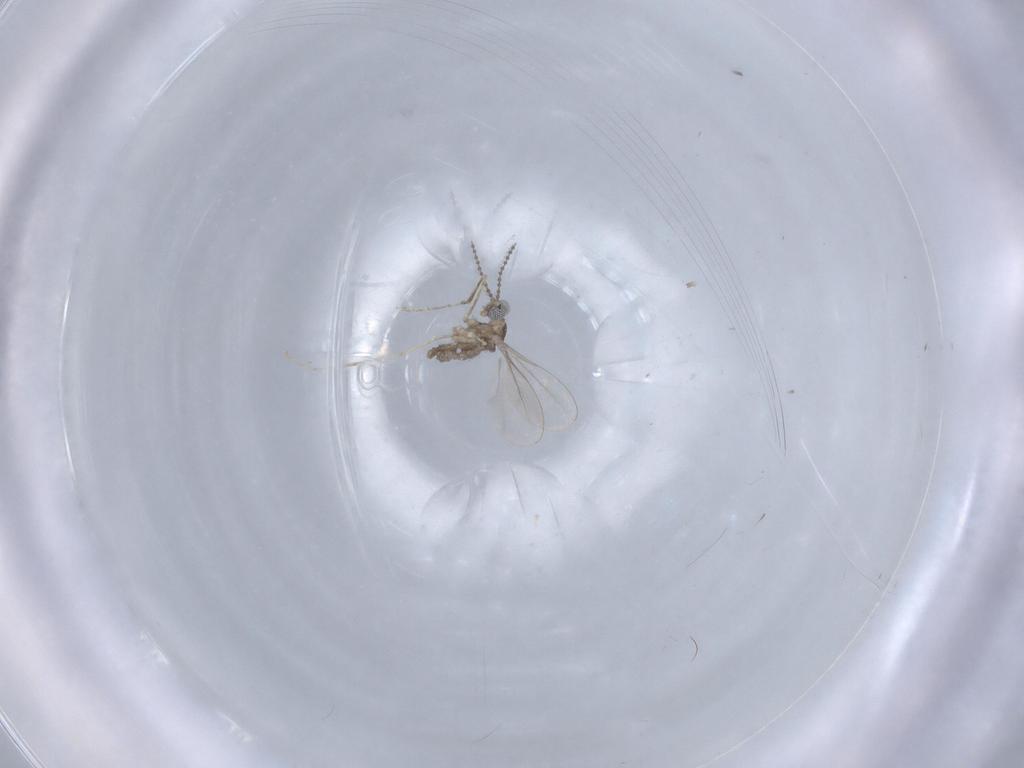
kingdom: Animalia
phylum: Arthropoda
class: Insecta
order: Diptera
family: Cecidomyiidae
